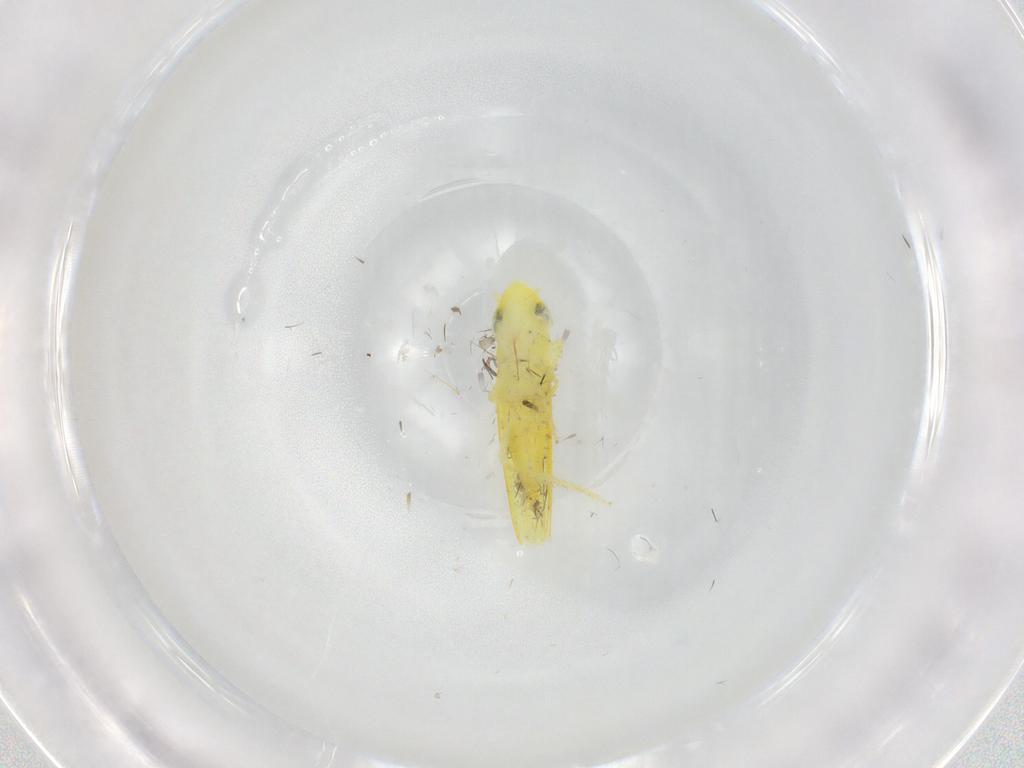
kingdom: Animalia
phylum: Arthropoda
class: Insecta
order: Hemiptera
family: Cicadellidae
